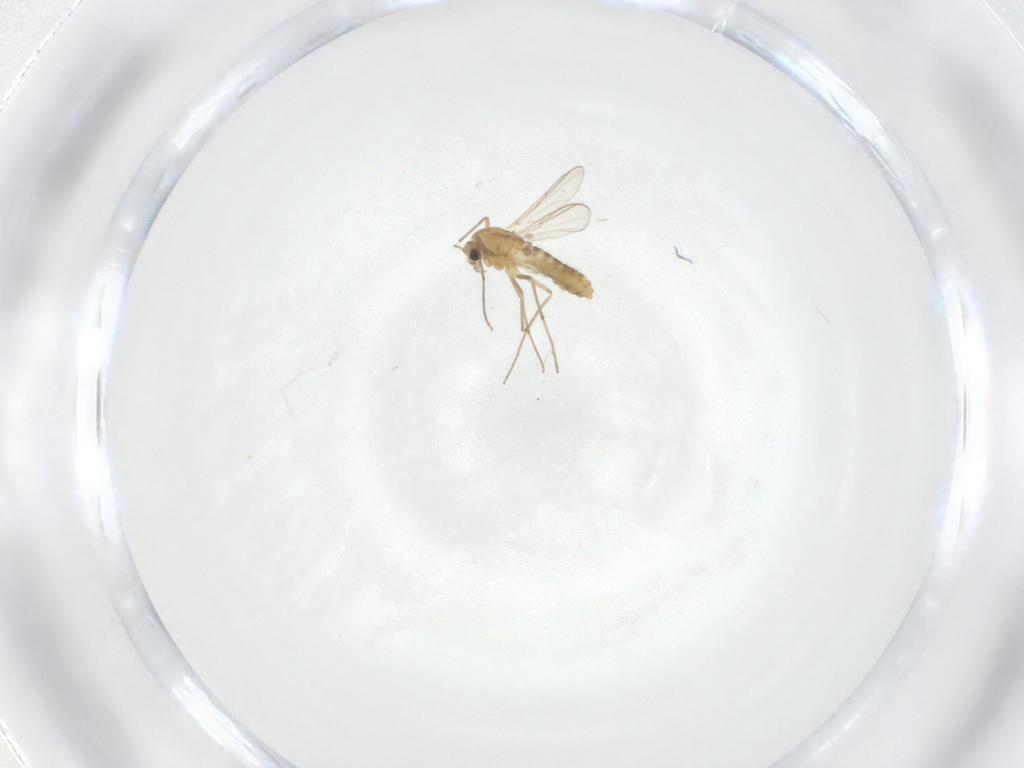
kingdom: Animalia
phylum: Arthropoda
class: Insecta
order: Diptera
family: Chironomidae
